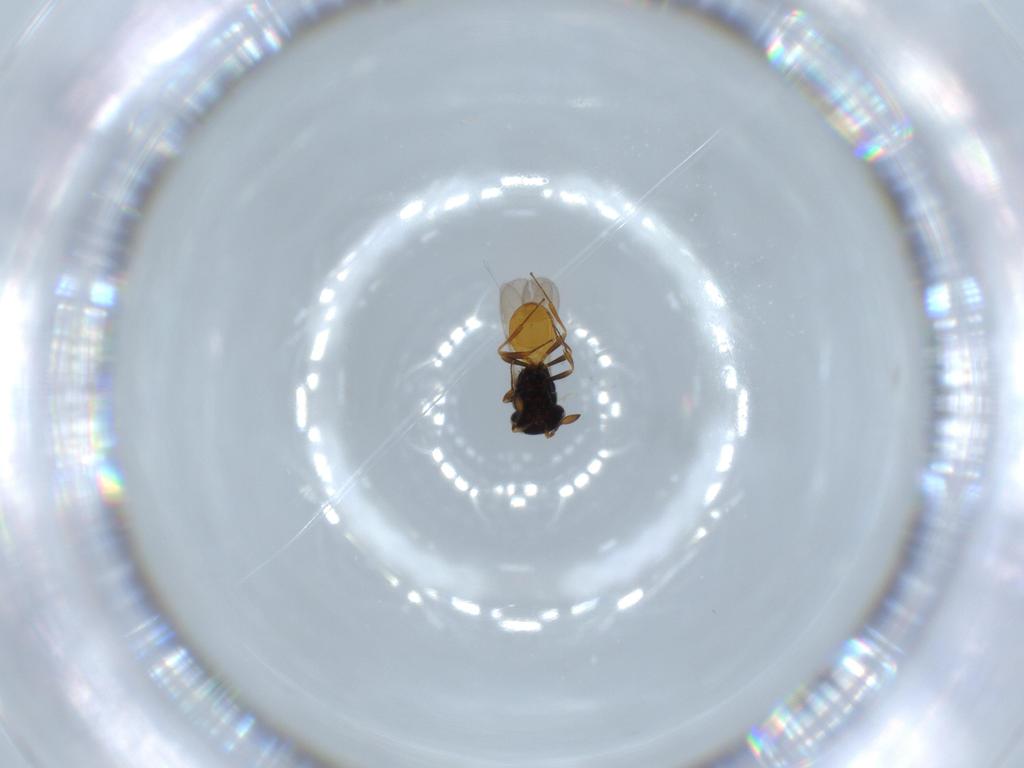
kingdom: Animalia
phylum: Arthropoda
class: Insecta
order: Hymenoptera
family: Scelionidae
